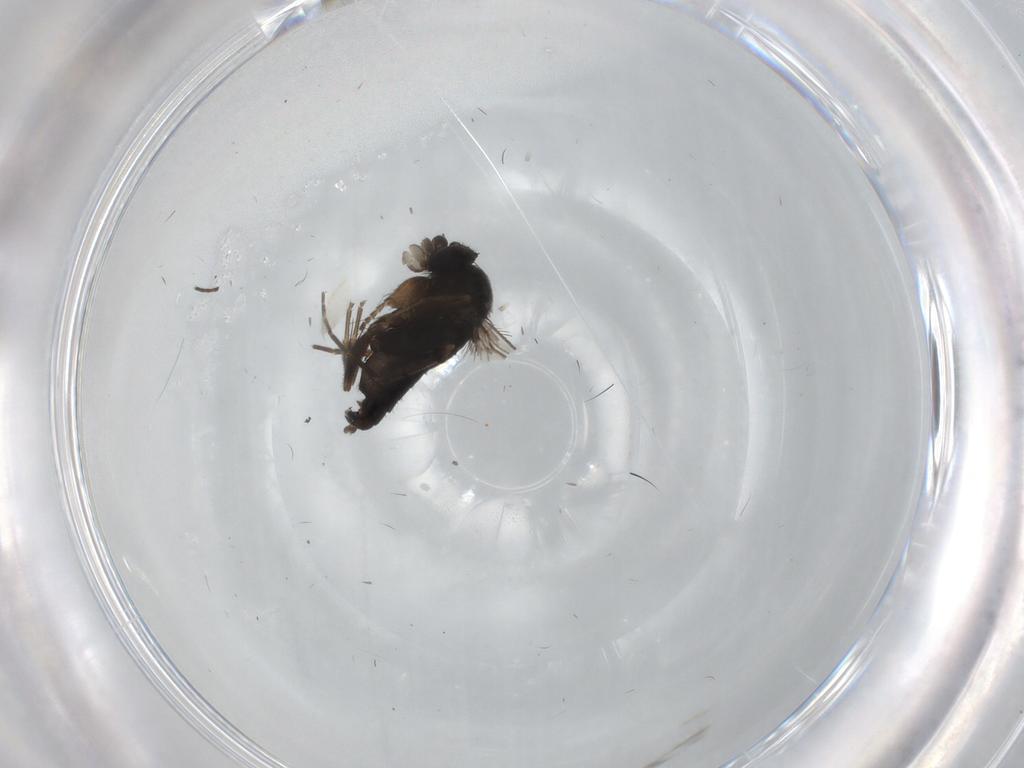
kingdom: Animalia
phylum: Arthropoda
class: Insecta
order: Diptera
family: Phoridae
